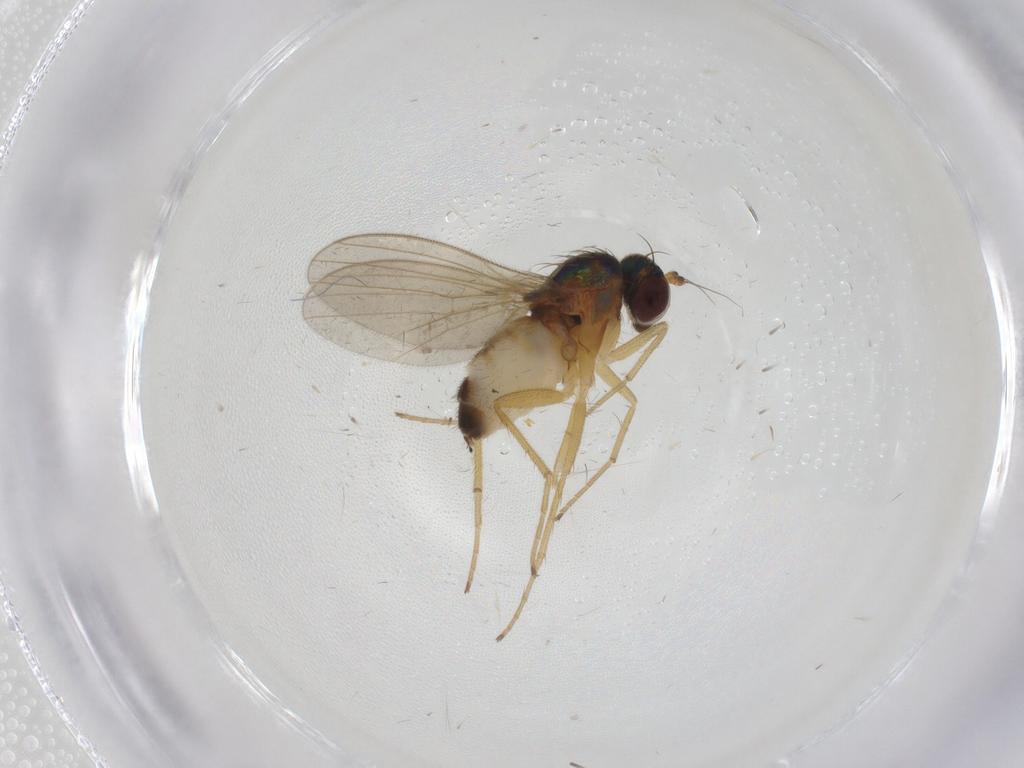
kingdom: Animalia
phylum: Arthropoda
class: Insecta
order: Diptera
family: Dolichopodidae
